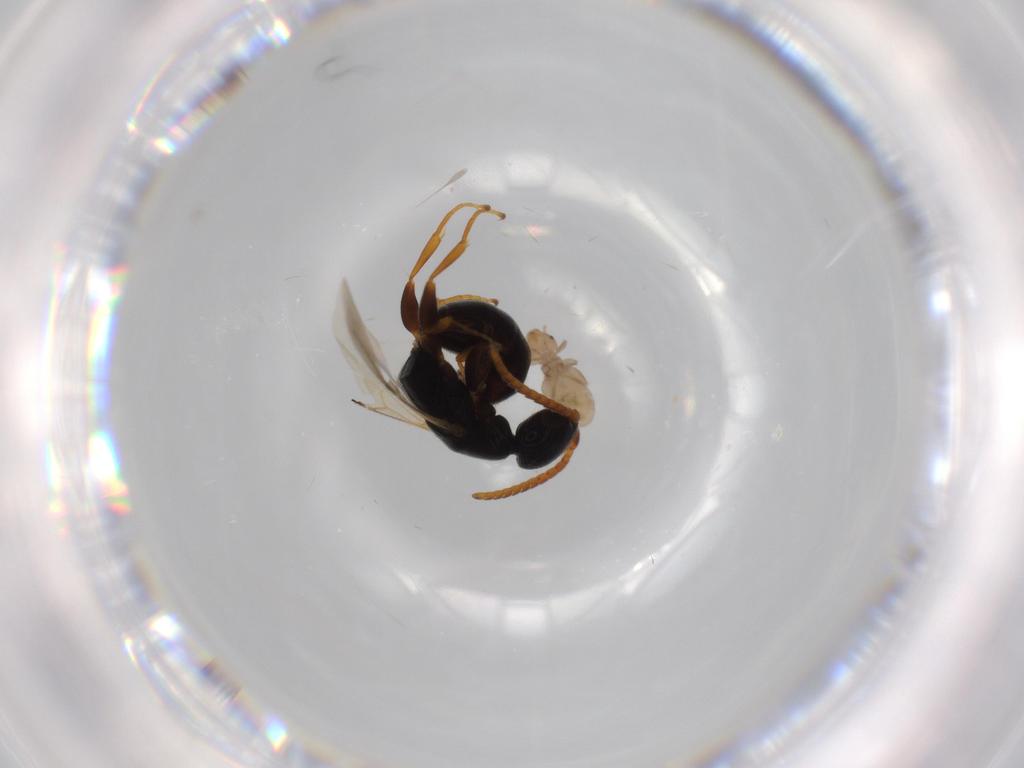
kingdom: Animalia
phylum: Arthropoda
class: Insecta
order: Psocodea
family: Liposcelididae
